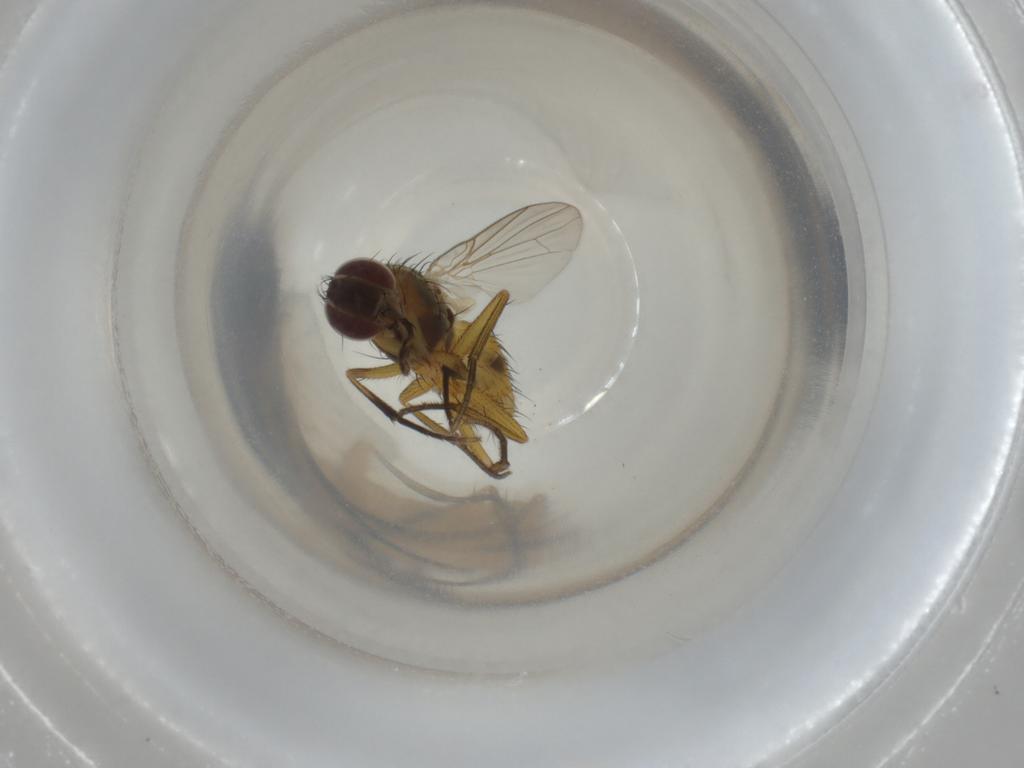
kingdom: Animalia
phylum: Arthropoda
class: Insecta
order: Diptera
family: Muscidae
